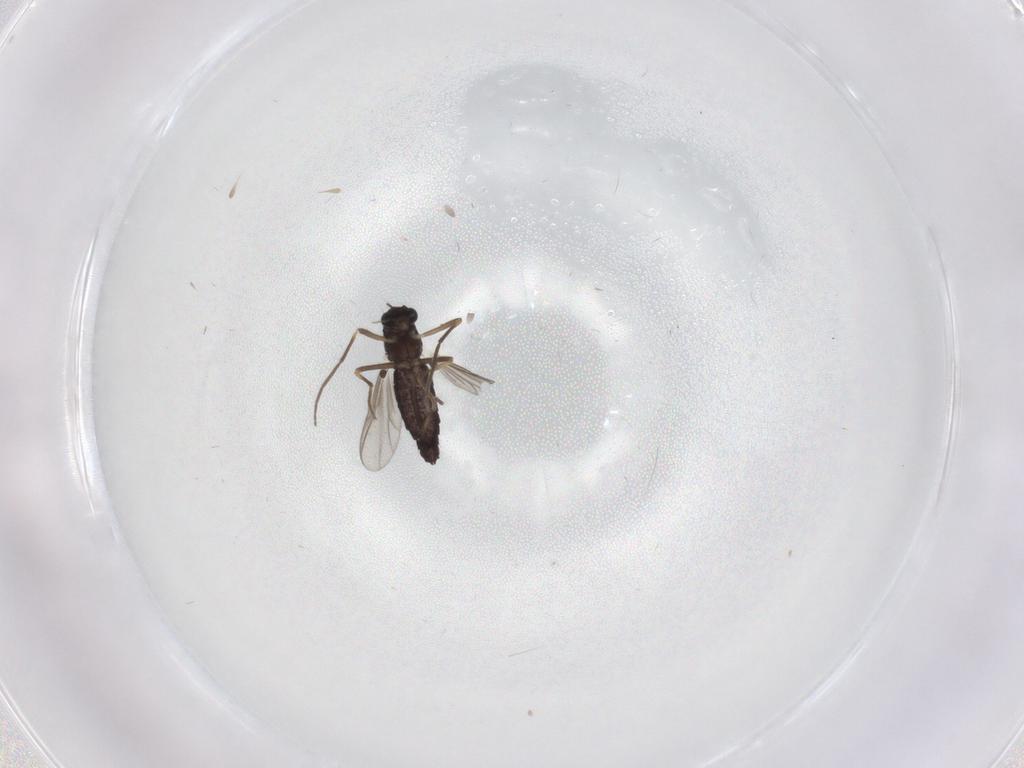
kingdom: Animalia
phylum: Arthropoda
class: Insecta
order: Diptera
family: Chironomidae
